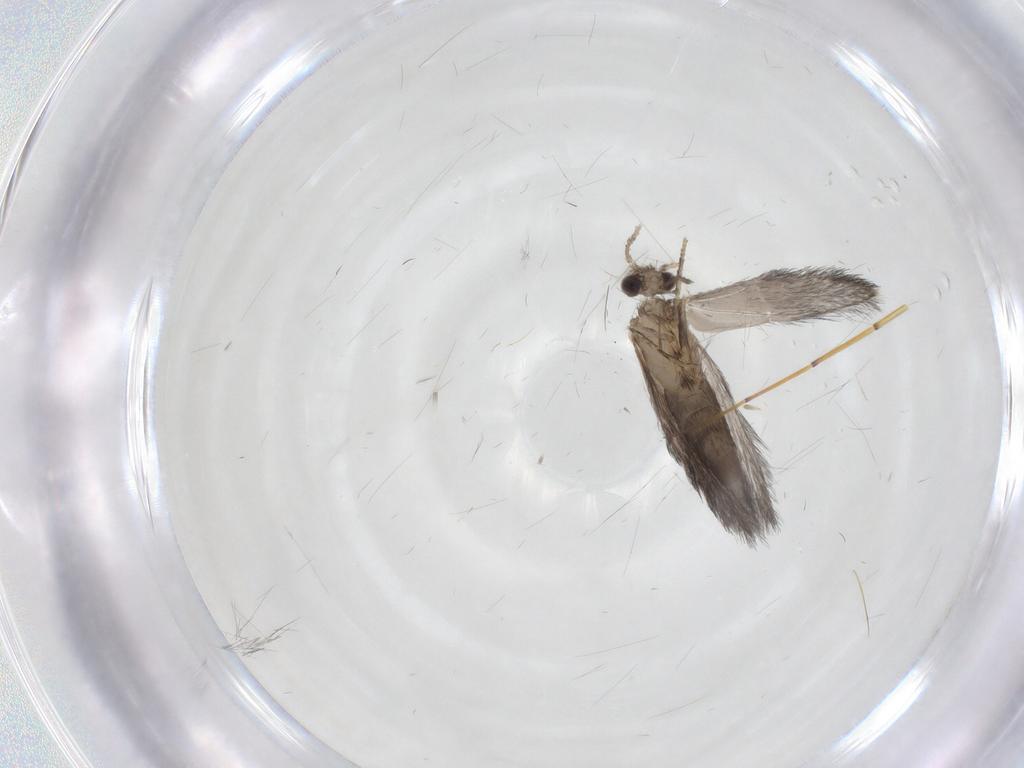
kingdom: Animalia
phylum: Arthropoda
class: Insecta
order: Trichoptera
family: Hydroptilidae
